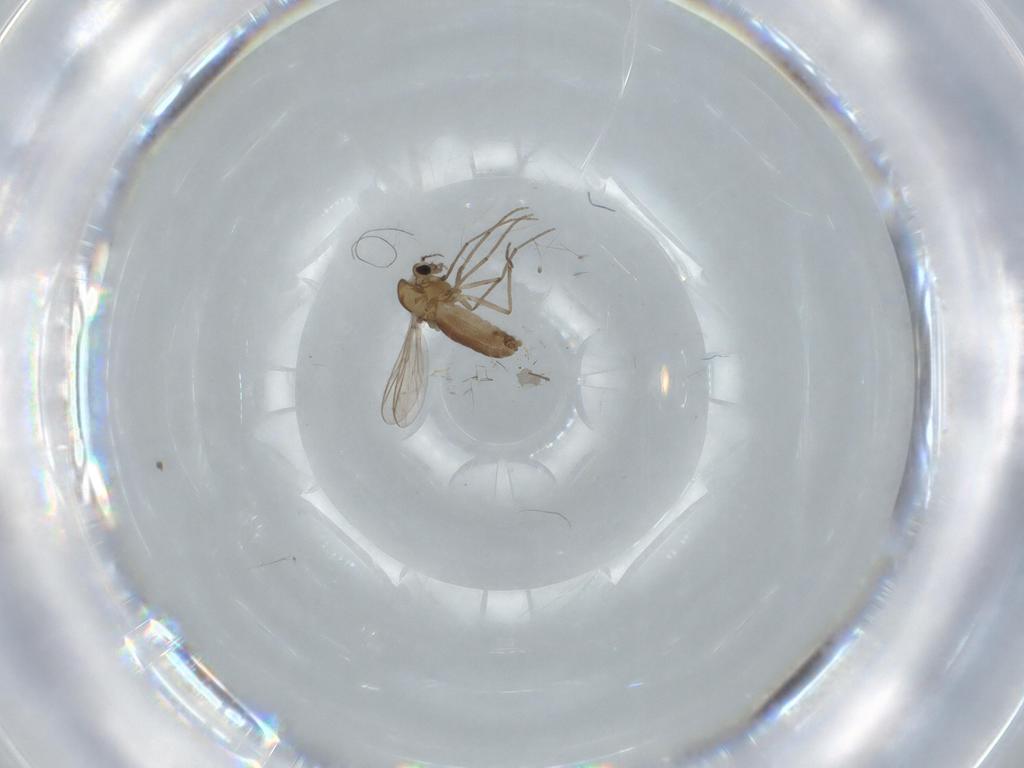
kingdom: Animalia
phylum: Arthropoda
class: Insecta
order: Diptera
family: Chironomidae
